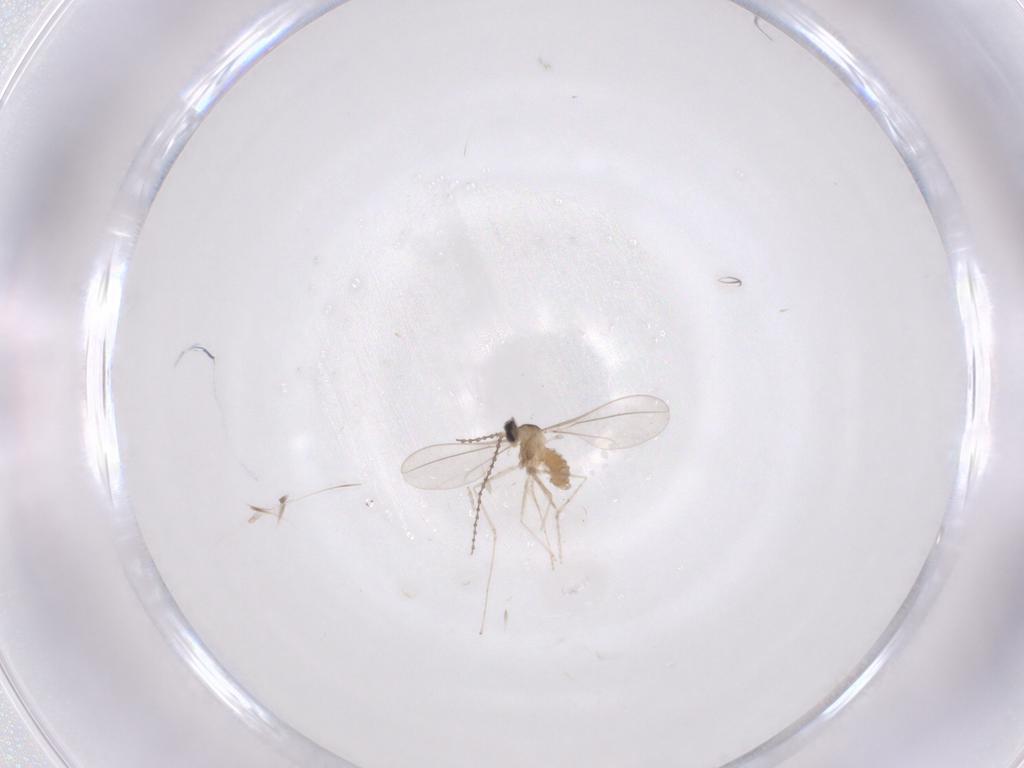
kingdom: Animalia
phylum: Arthropoda
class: Insecta
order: Diptera
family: Cecidomyiidae
